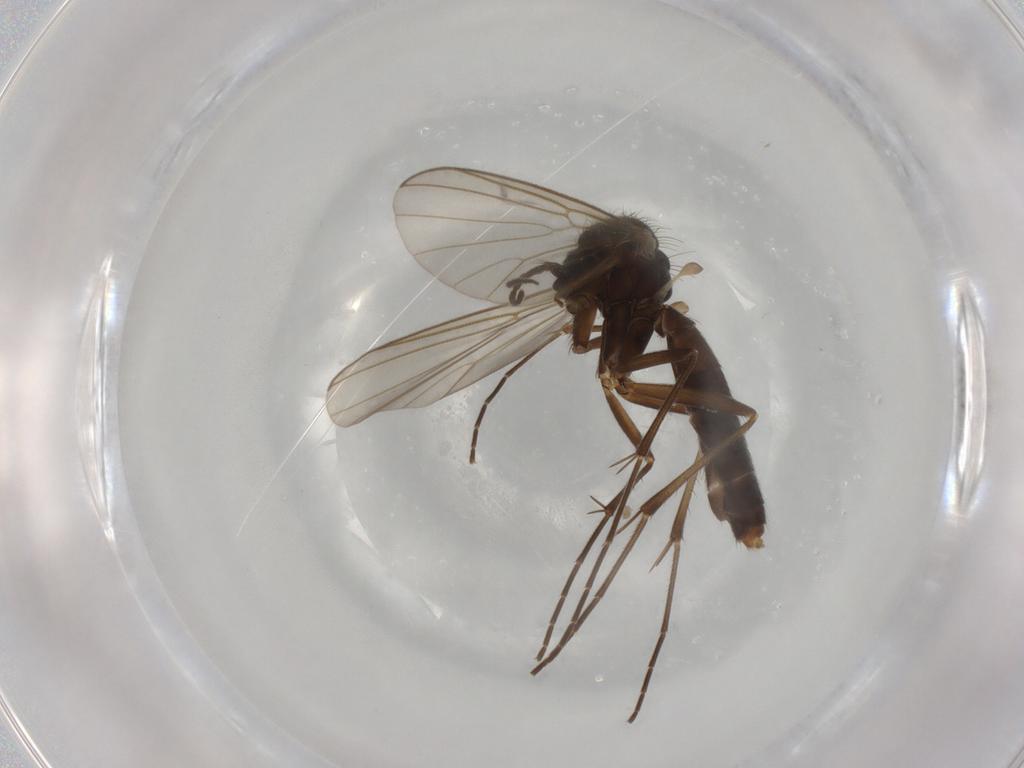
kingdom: Animalia
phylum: Arthropoda
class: Insecta
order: Diptera
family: Mycetophilidae
